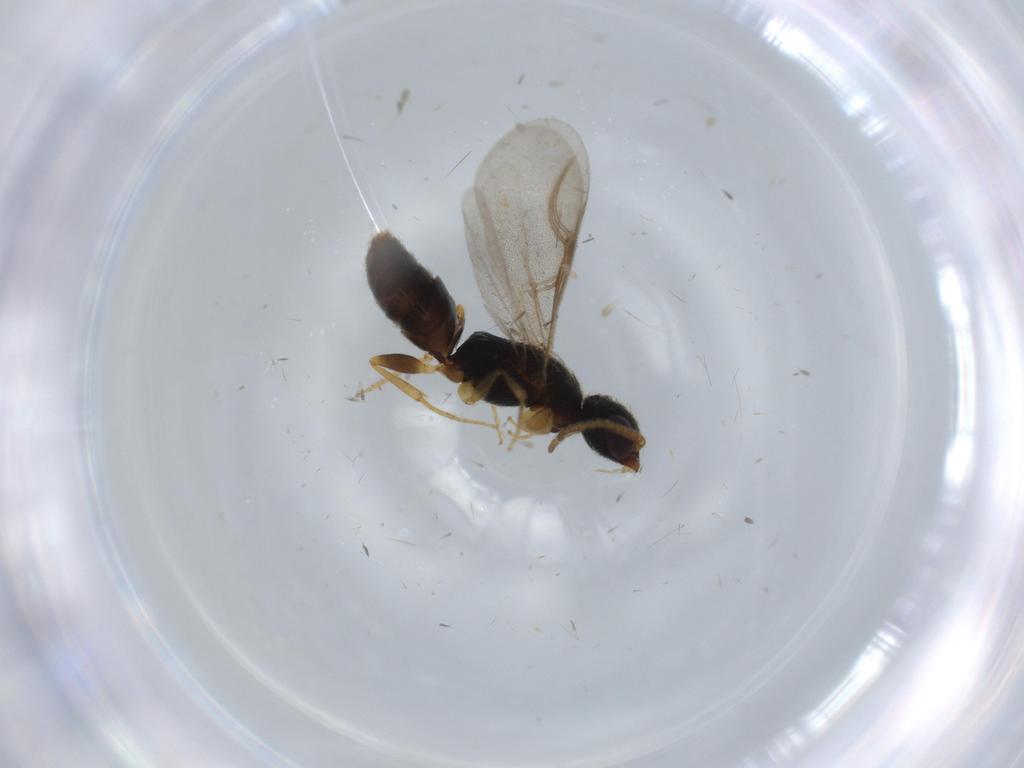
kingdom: Animalia
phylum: Arthropoda
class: Insecta
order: Hymenoptera
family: Bethylidae
